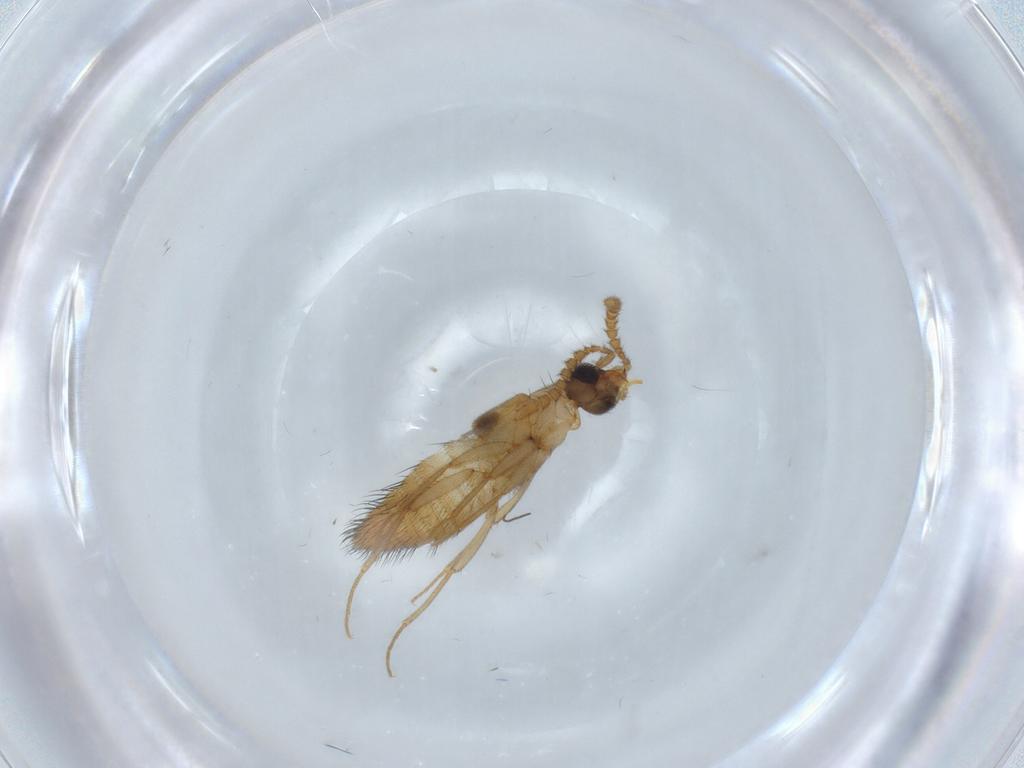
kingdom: Animalia
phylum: Arthropoda
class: Insecta
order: Coleoptera
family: Staphylinidae
